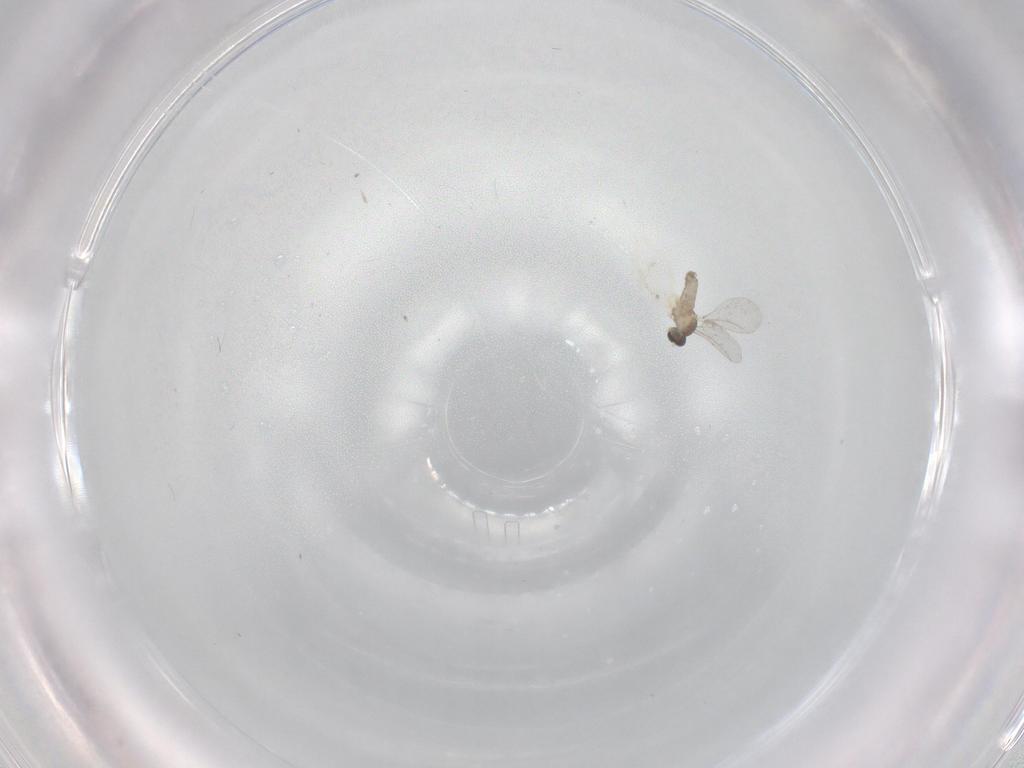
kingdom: Animalia
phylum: Arthropoda
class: Insecta
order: Diptera
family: Cecidomyiidae
